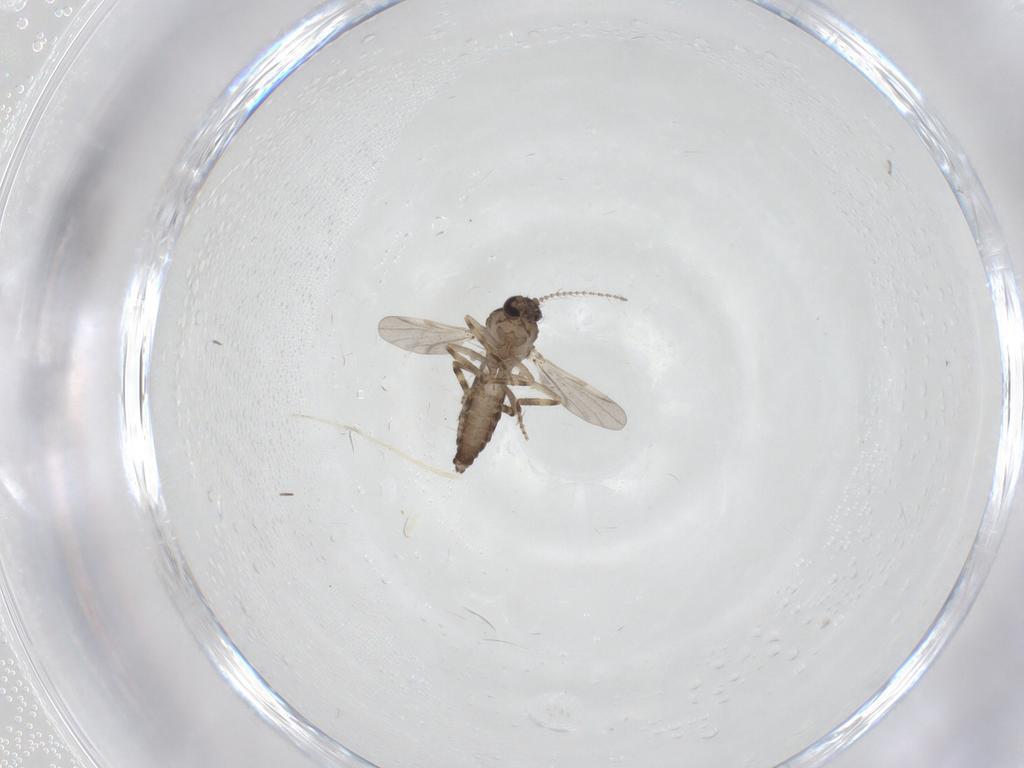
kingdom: Animalia
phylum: Arthropoda
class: Insecta
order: Diptera
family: Ceratopogonidae
